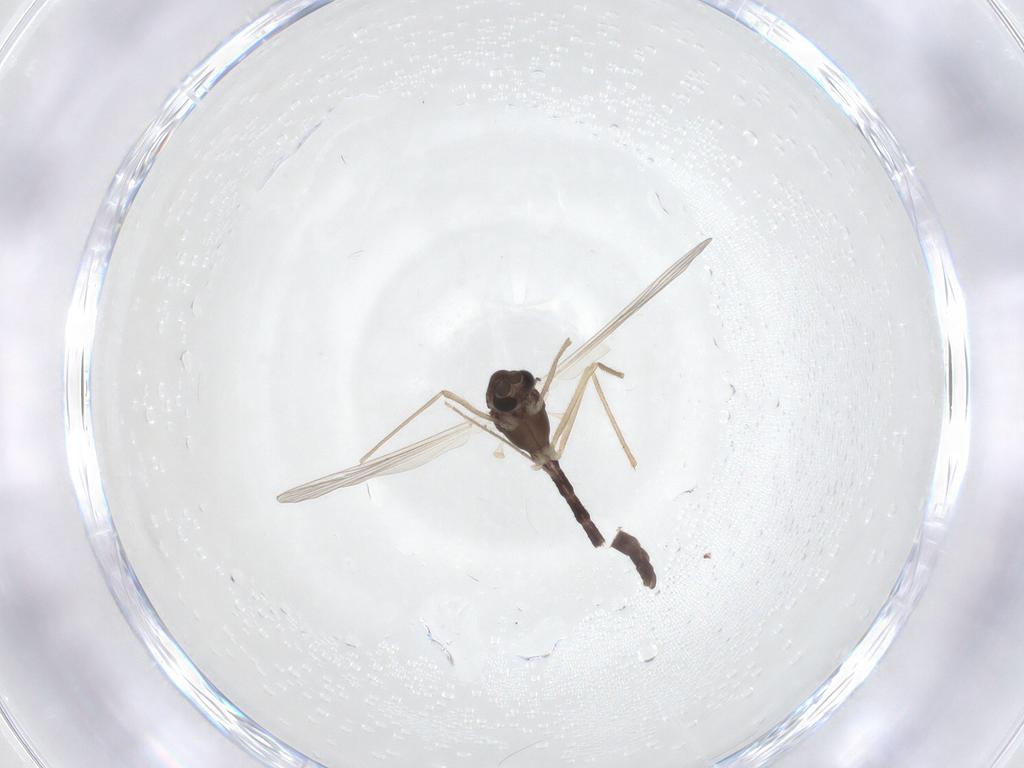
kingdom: Animalia
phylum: Arthropoda
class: Insecta
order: Diptera
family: Chironomidae
